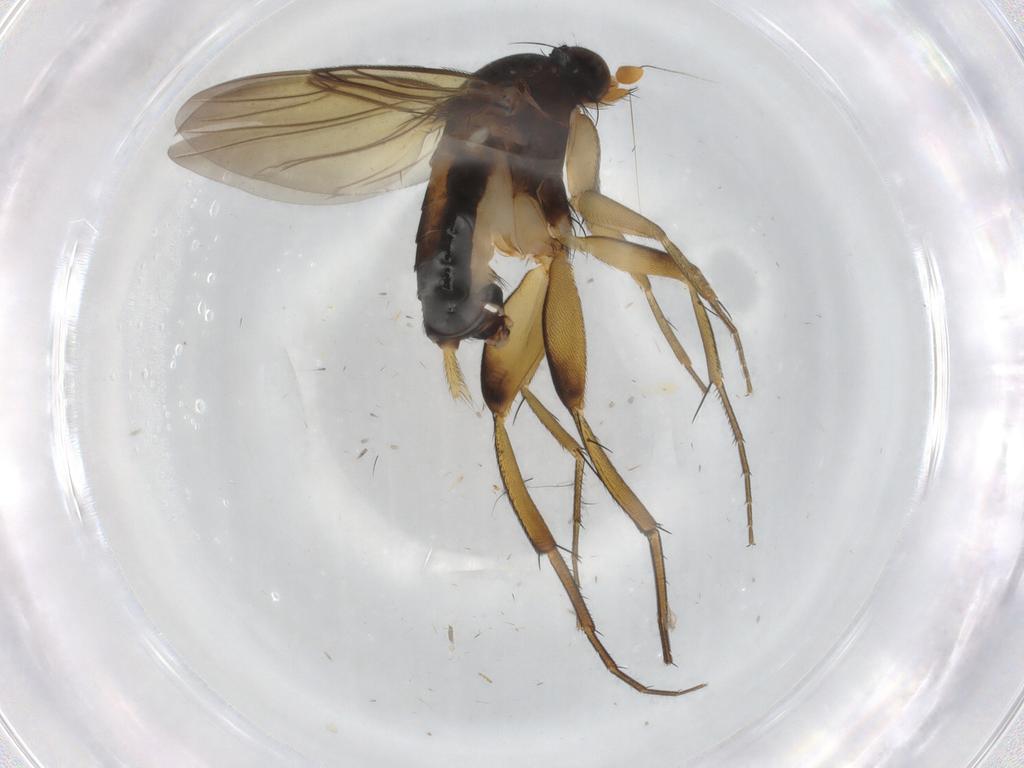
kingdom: Animalia
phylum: Arthropoda
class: Insecta
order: Diptera
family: Phoridae
